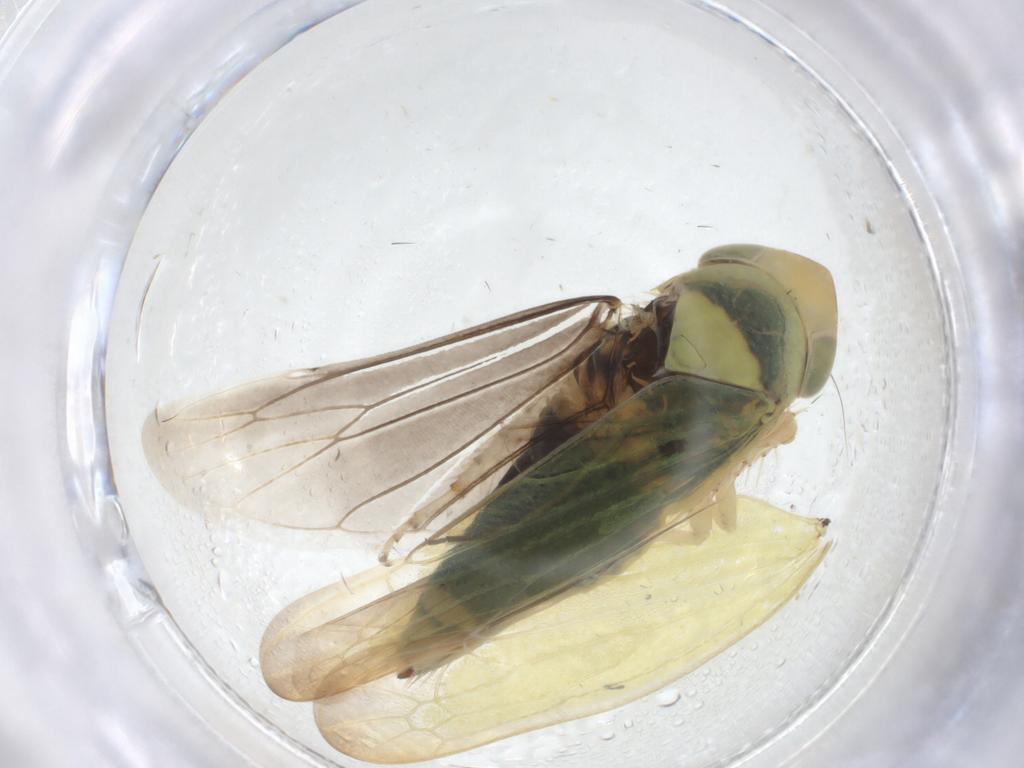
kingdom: Animalia
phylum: Arthropoda
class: Insecta
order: Hemiptera
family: Cicadellidae
